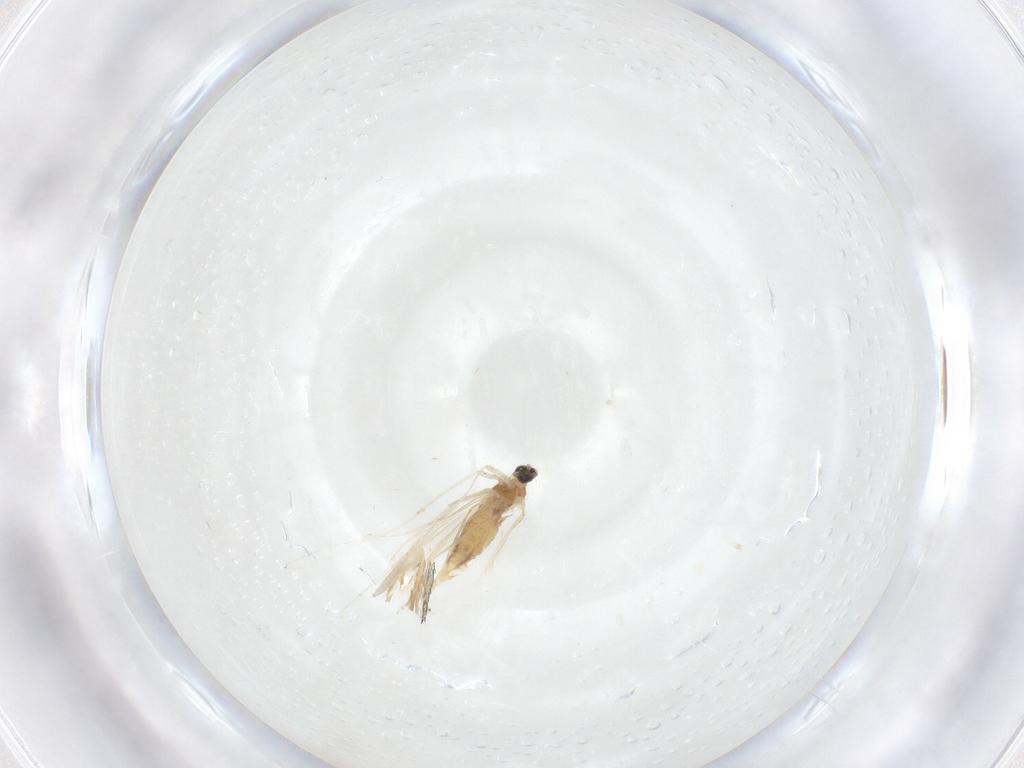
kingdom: Animalia
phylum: Arthropoda
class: Insecta
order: Diptera
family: Sarcophagidae
